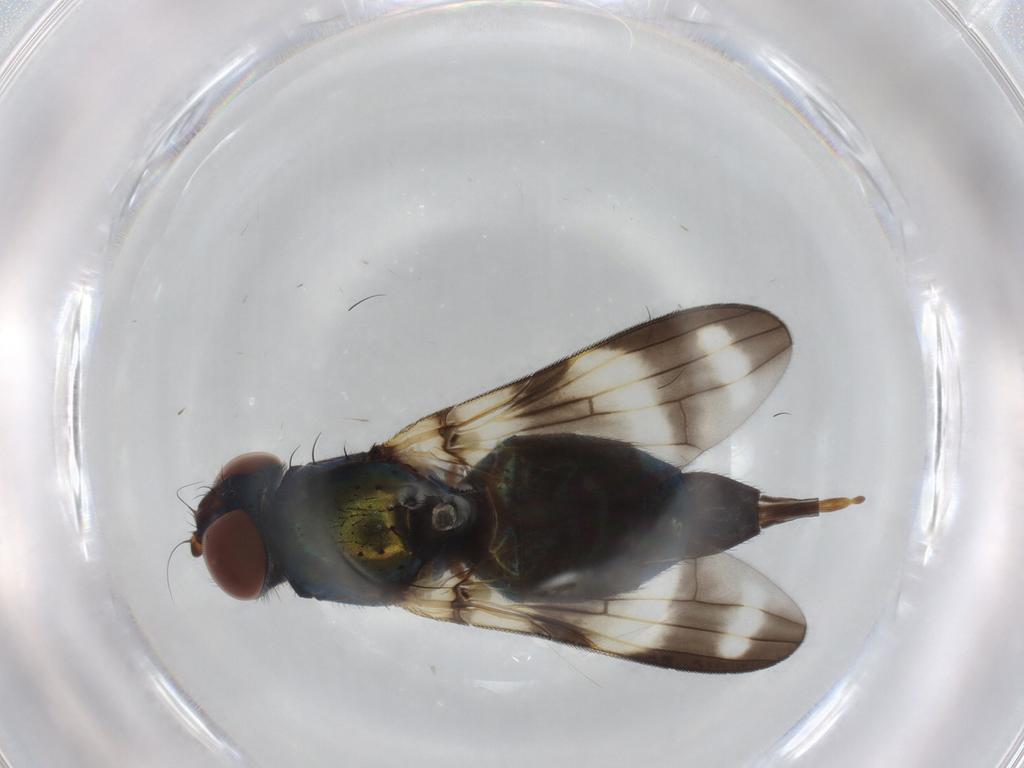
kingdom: Animalia
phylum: Arthropoda
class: Insecta
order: Diptera
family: Ulidiidae
